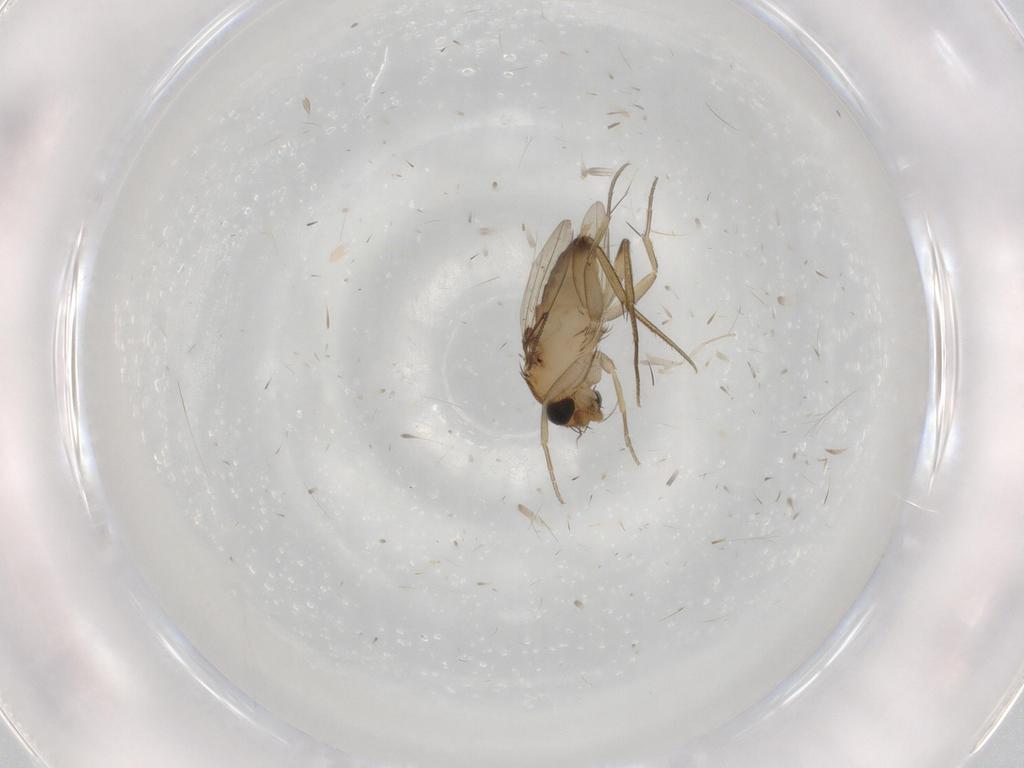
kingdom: Animalia
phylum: Arthropoda
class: Insecta
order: Diptera
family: Phoridae
